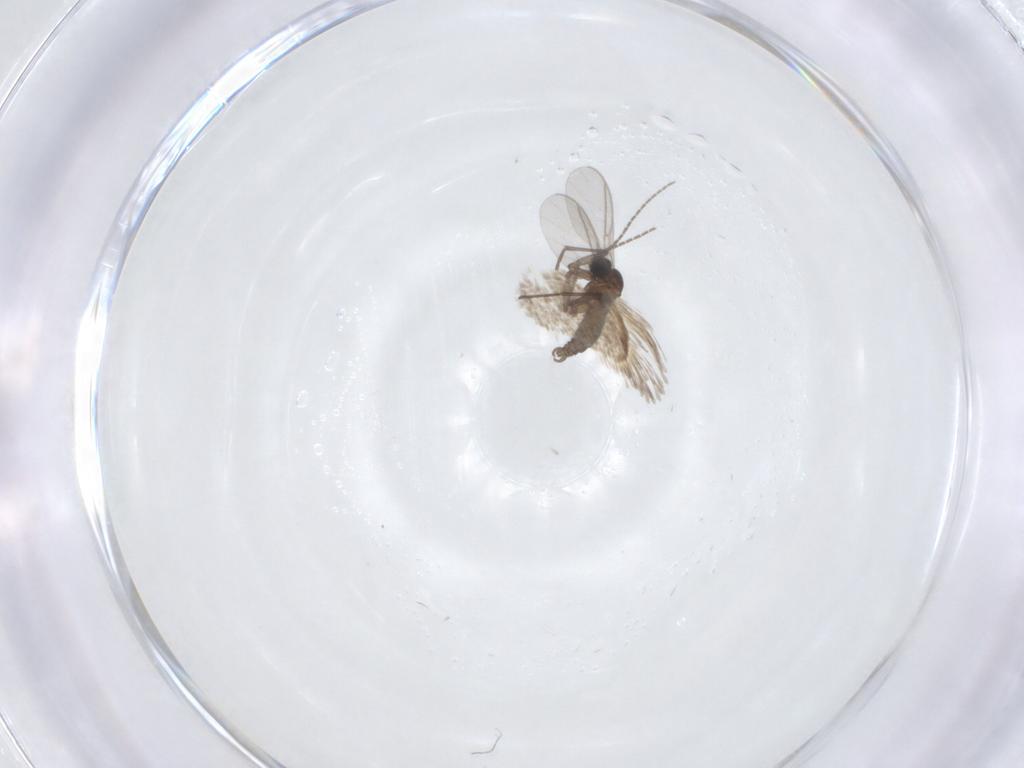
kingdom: Animalia
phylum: Arthropoda
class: Insecta
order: Diptera
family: Sciaridae
